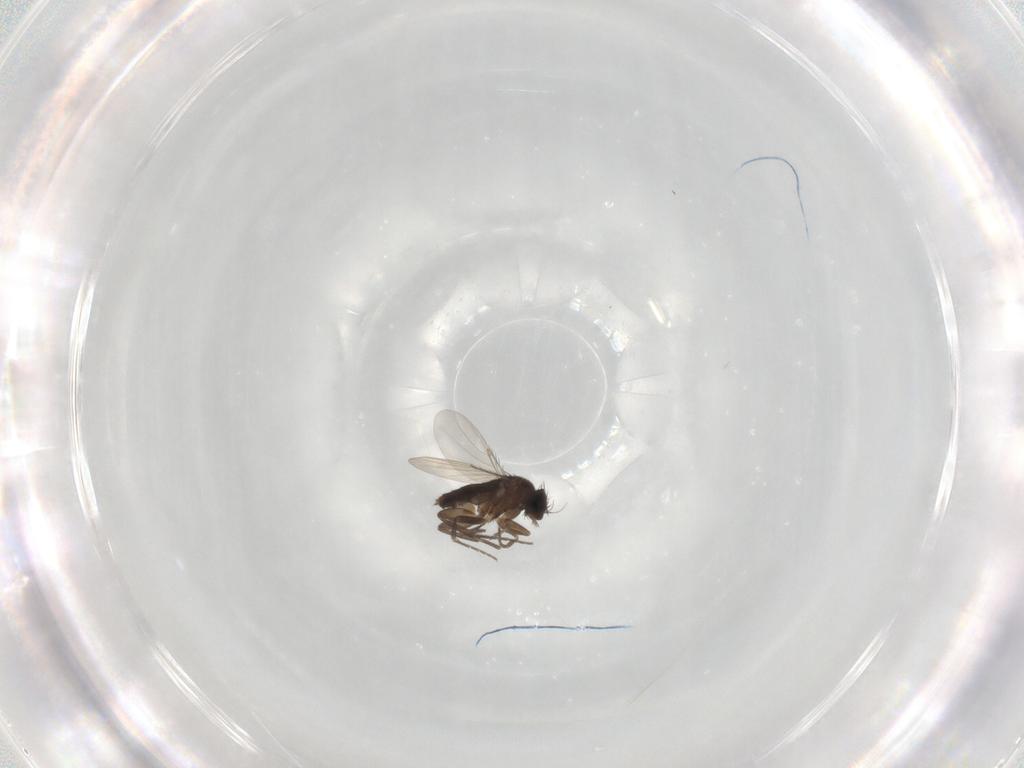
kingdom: Animalia
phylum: Arthropoda
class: Insecta
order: Diptera
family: Phoridae
